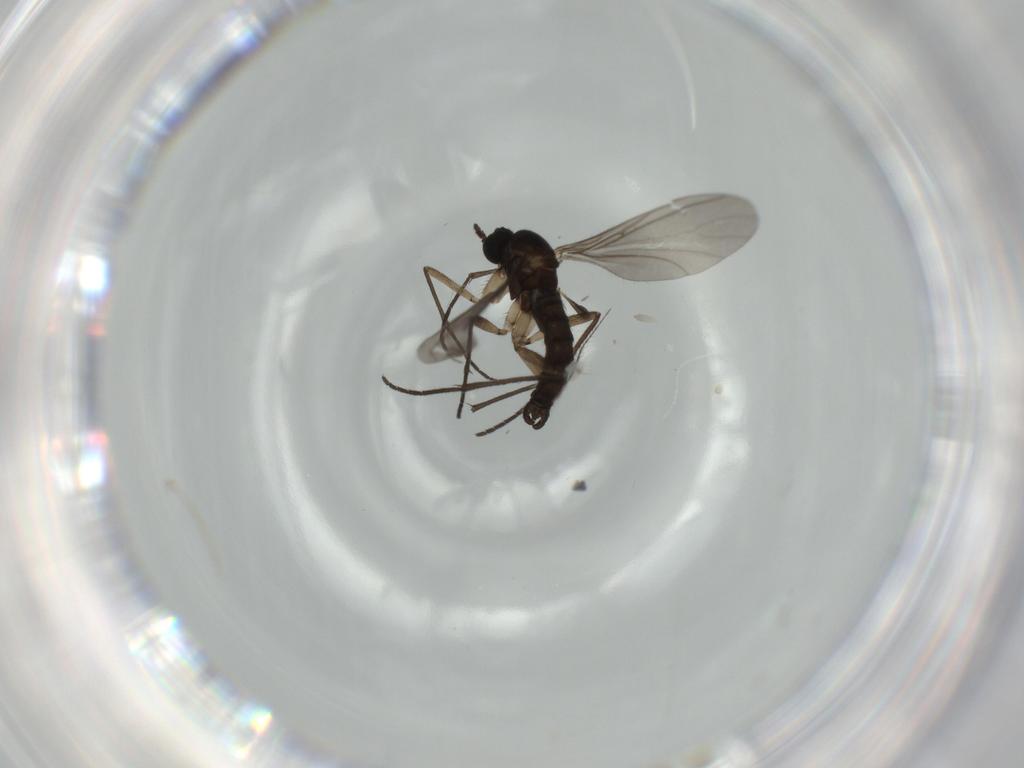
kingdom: Animalia
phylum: Arthropoda
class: Insecta
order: Diptera
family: Sciaridae
